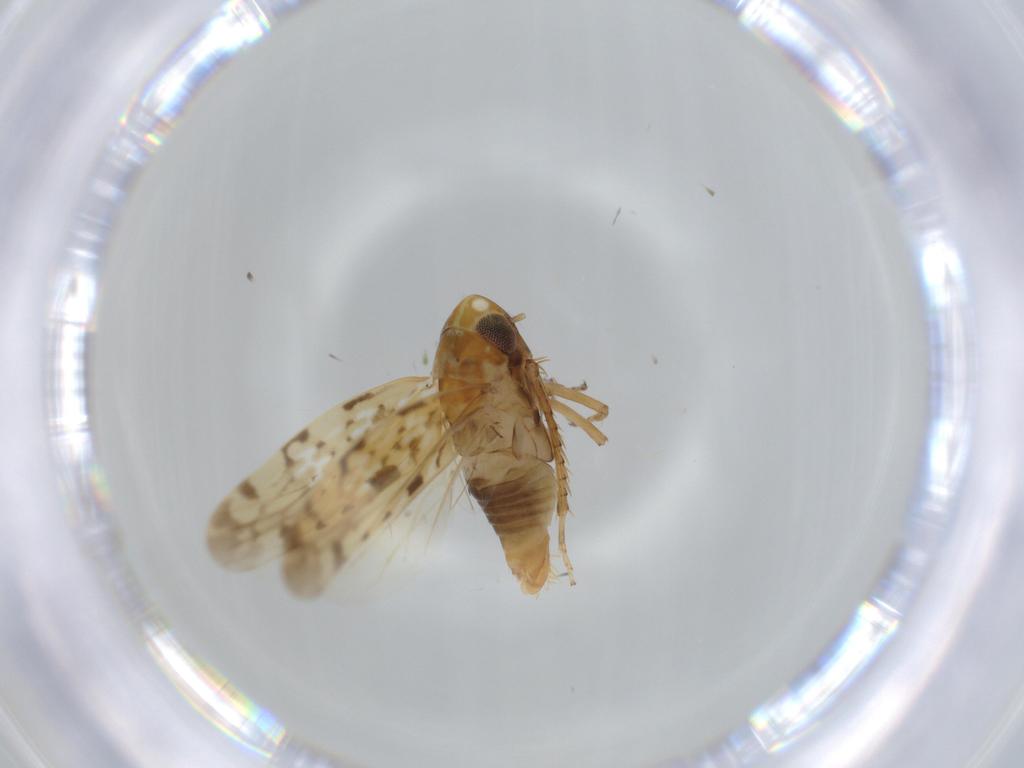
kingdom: Animalia
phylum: Arthropoda
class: Insecta
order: Hemiptera
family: Cicadellidae
